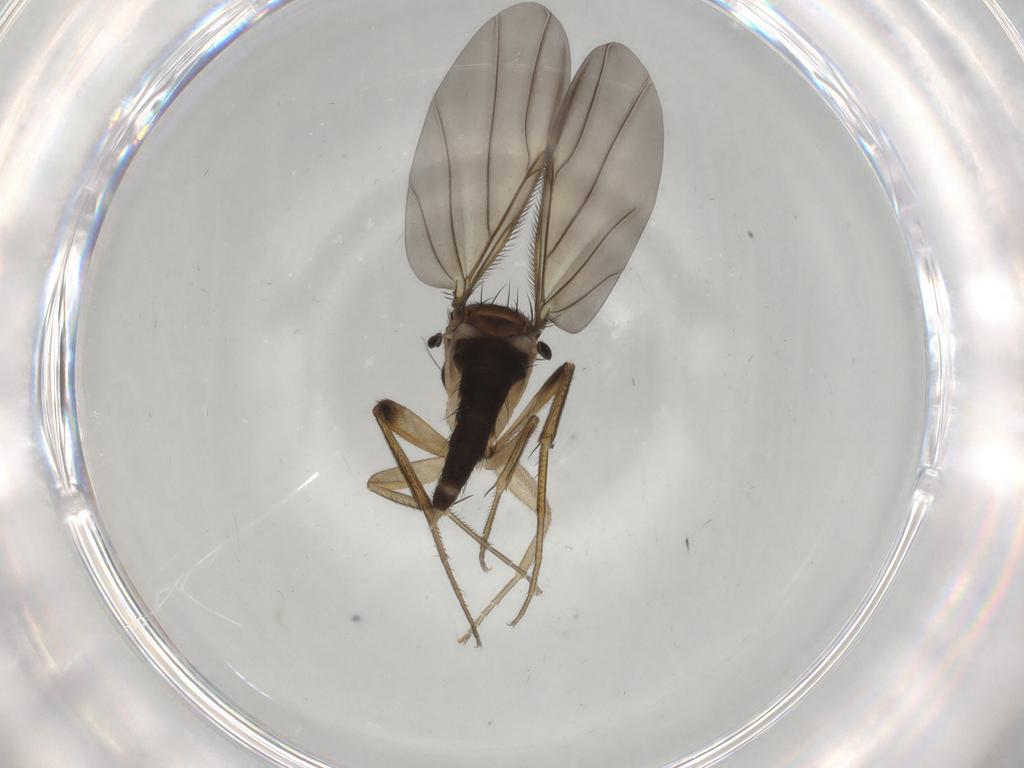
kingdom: Animalia
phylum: Arthropoda
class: Insecta
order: Diptera
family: Phoridae
